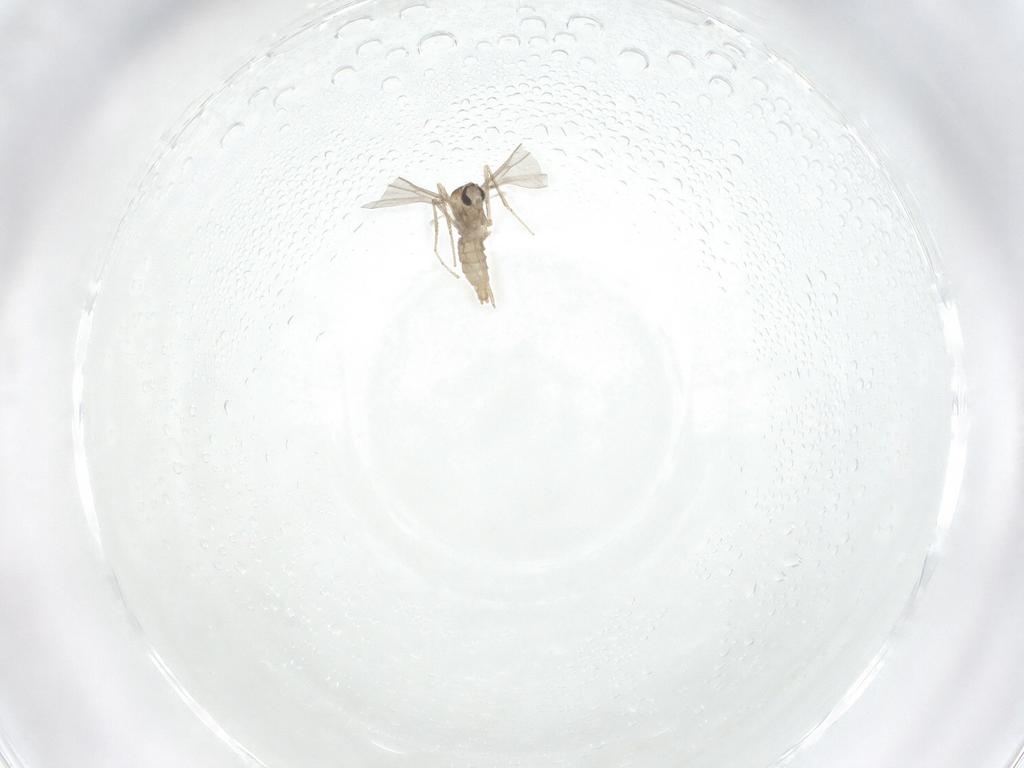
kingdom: Animalia
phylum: Arthropoda
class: Insecta
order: Diptera
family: Cecidomyiidae
